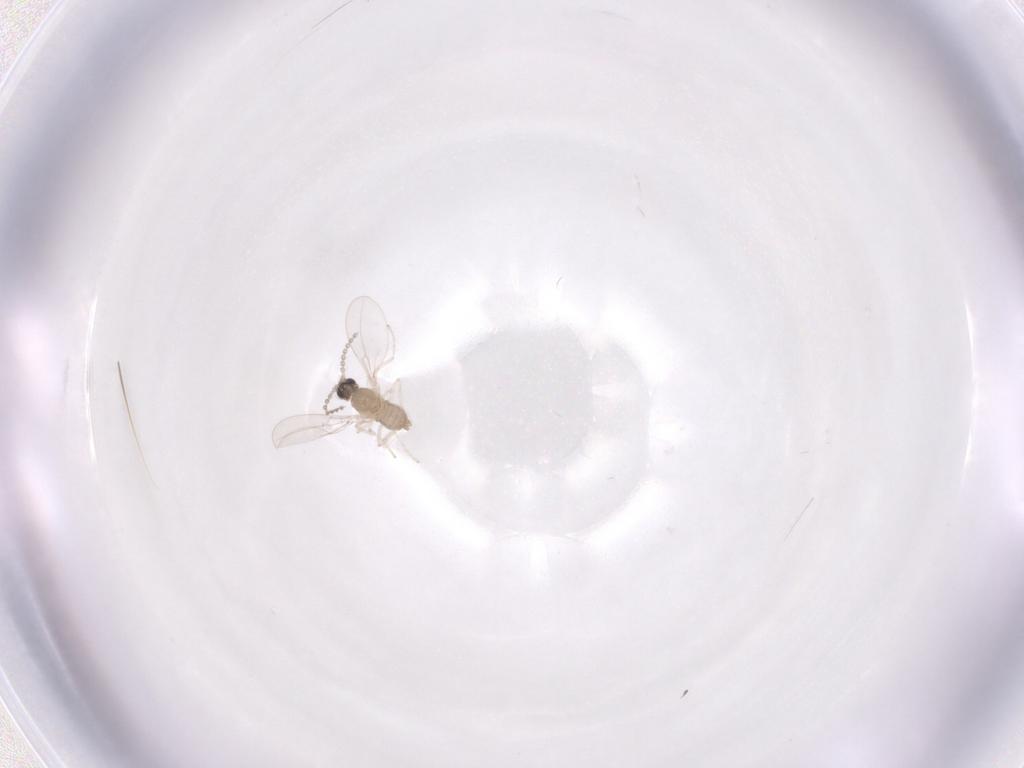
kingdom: Animalia
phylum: Arthropoda
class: Insecta
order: Diptera
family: Cecidomyiidae
